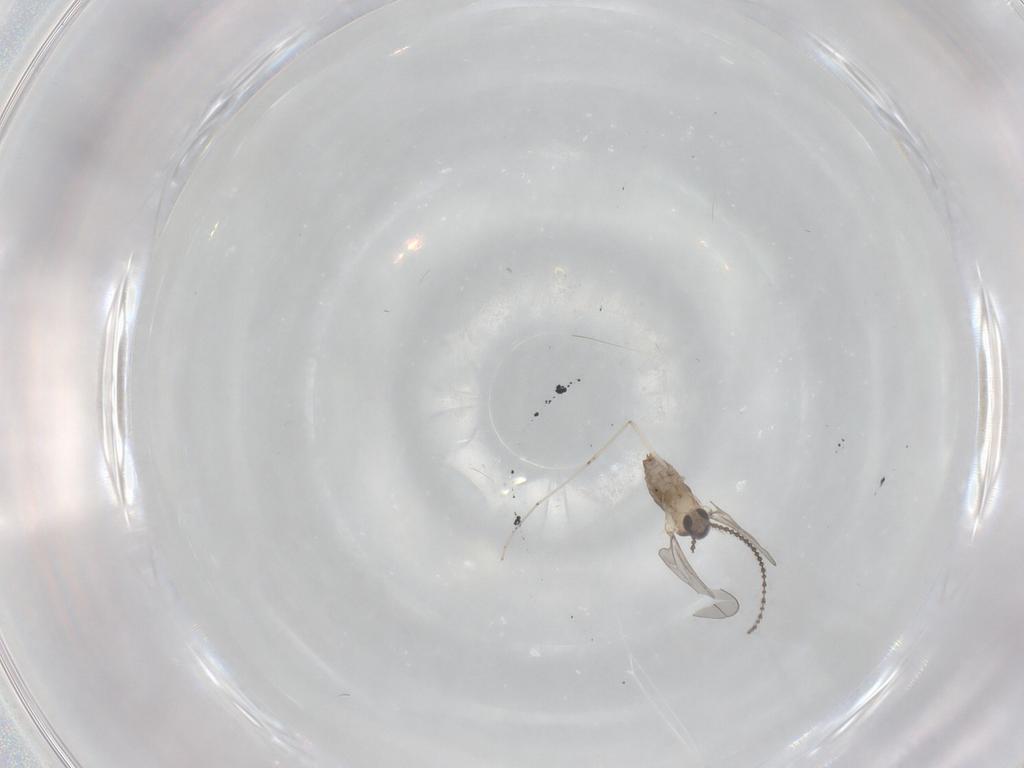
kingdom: Animalia
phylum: Arthropoda
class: Insecta
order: Diptera
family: Cecidomyiidae
